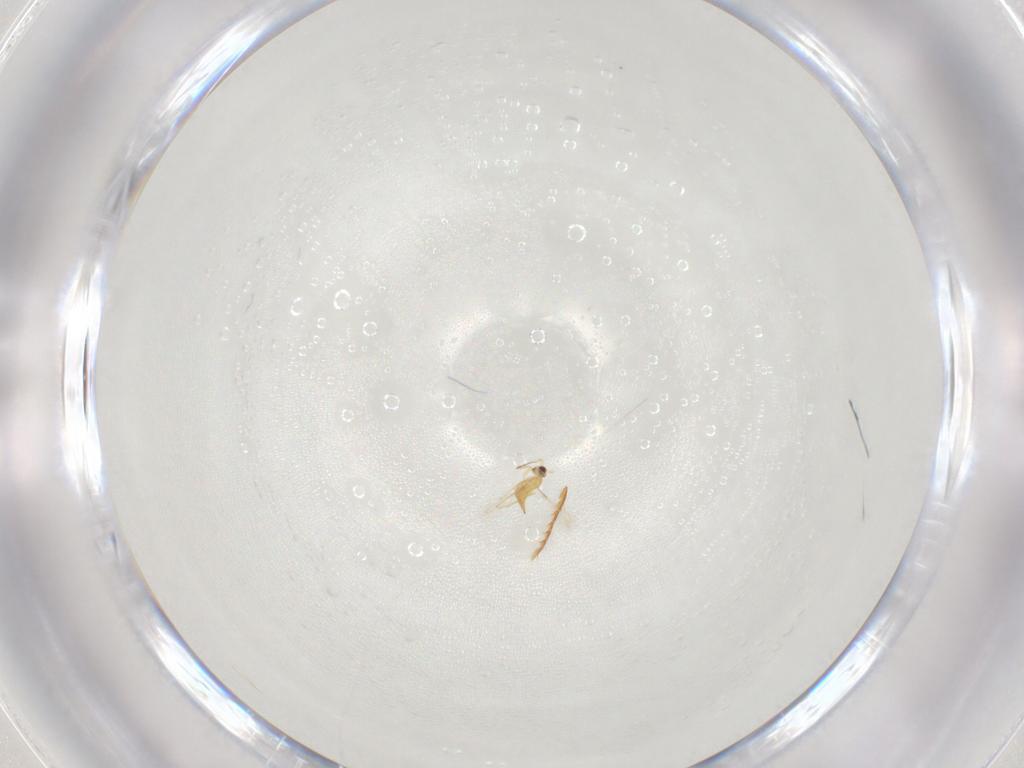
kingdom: Animalia
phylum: Arthropoda
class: Insecta
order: Hymenoptera
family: Mymaridae
